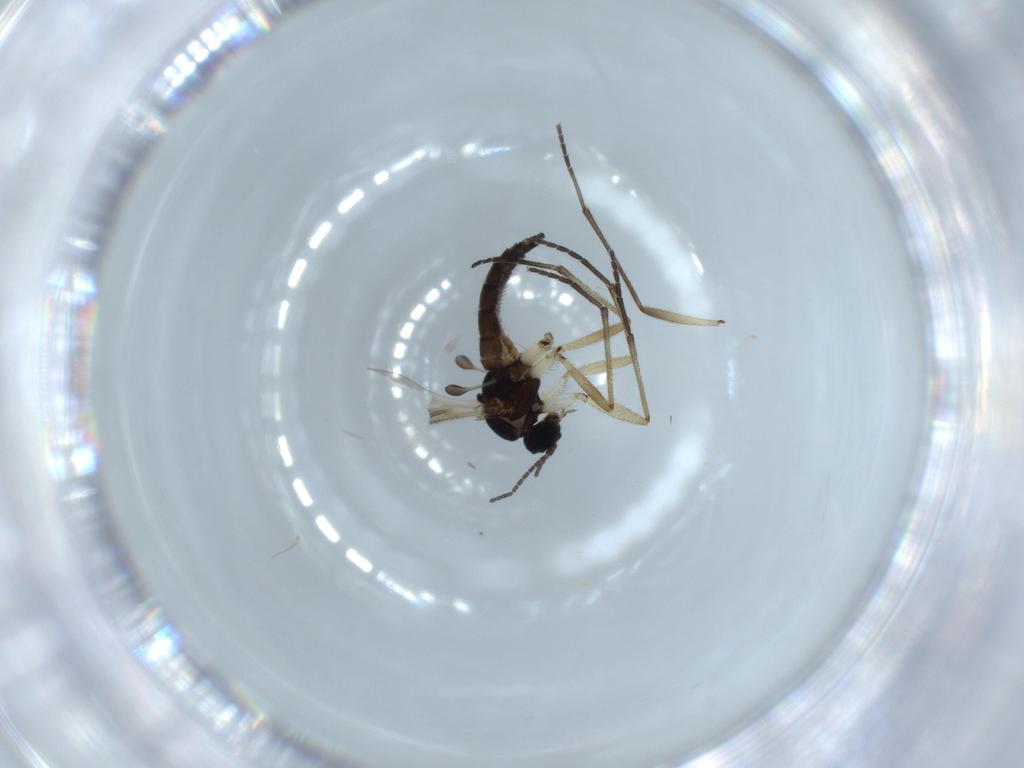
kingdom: Animalia
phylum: Arthropoda
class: Insecta
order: Diptera
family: Sciaridae
